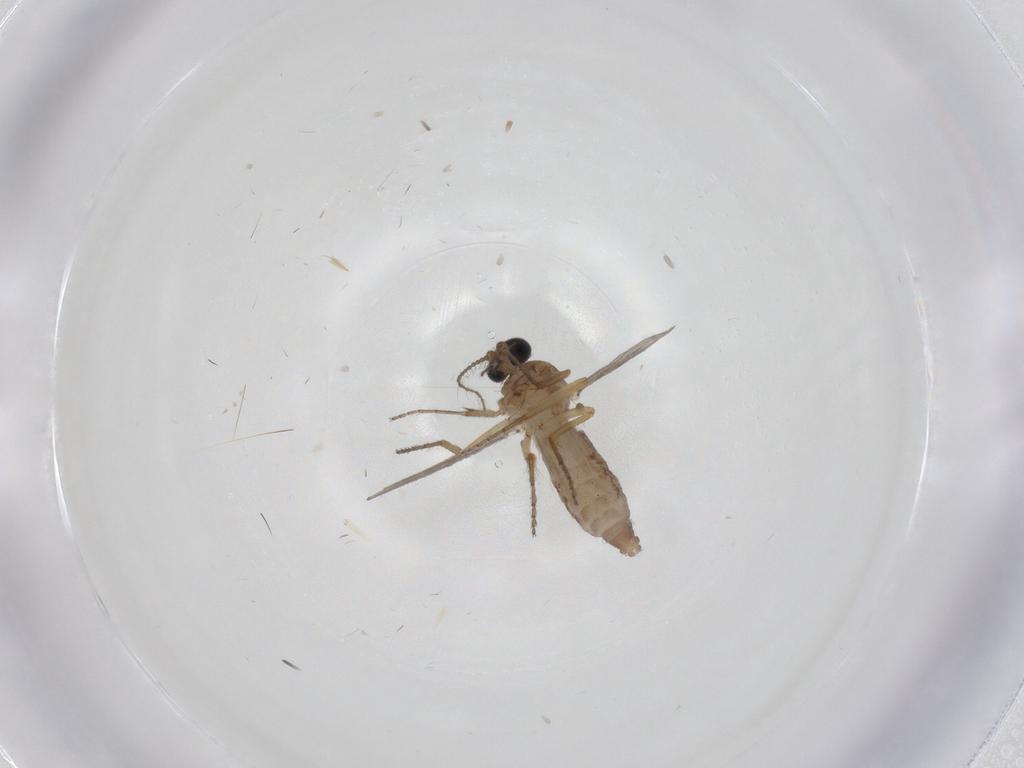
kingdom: Animalia
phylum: Arthropoda
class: Insecta
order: Diptera
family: Ceratopogonidae
